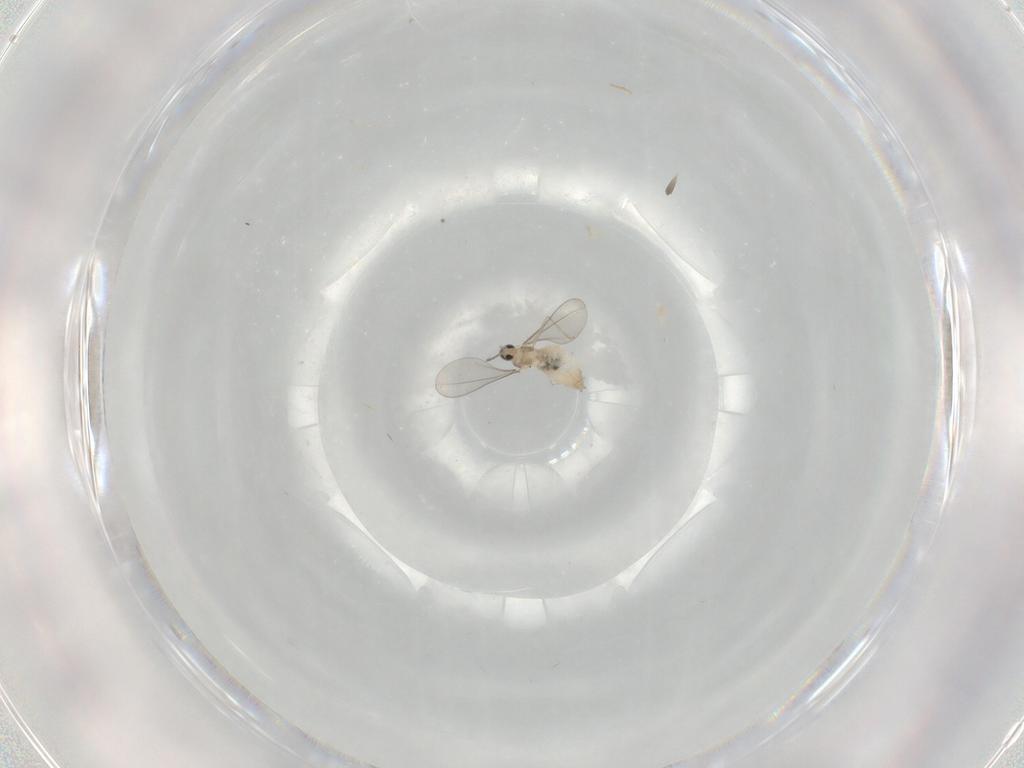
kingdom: Animalia
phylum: Arthropoda
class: Insecta
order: Diptera
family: Cecidomyiidae
